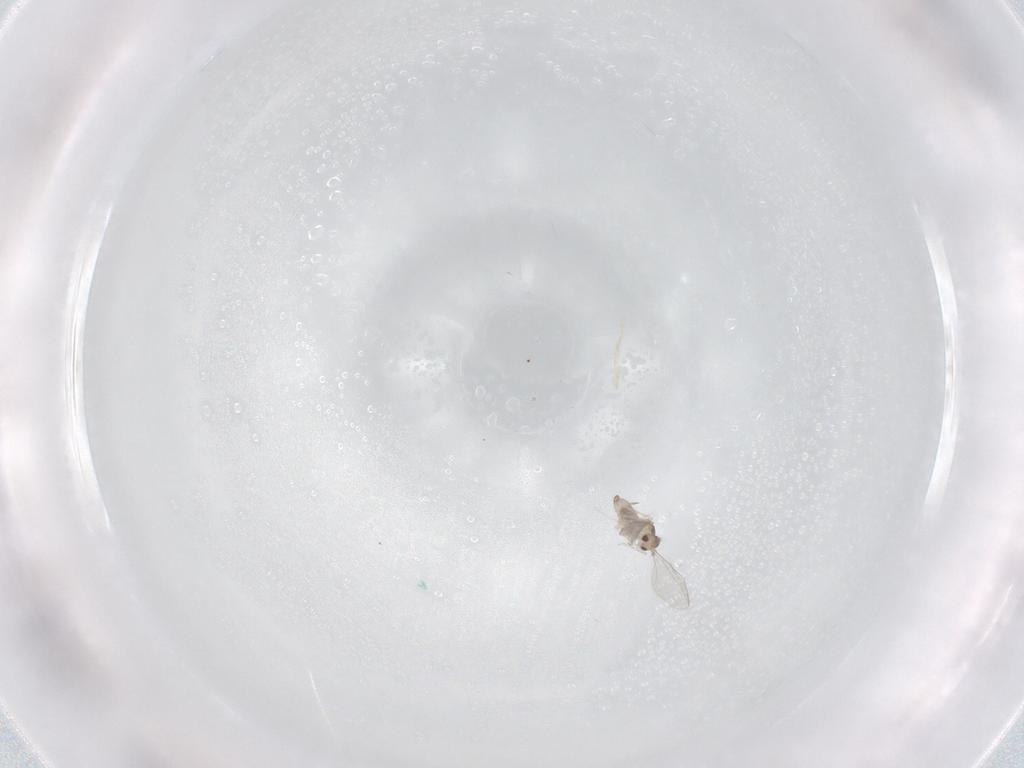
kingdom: Animalia
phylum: Arthropoda
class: Insecta
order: Diptera
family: Cecidomyiidae
